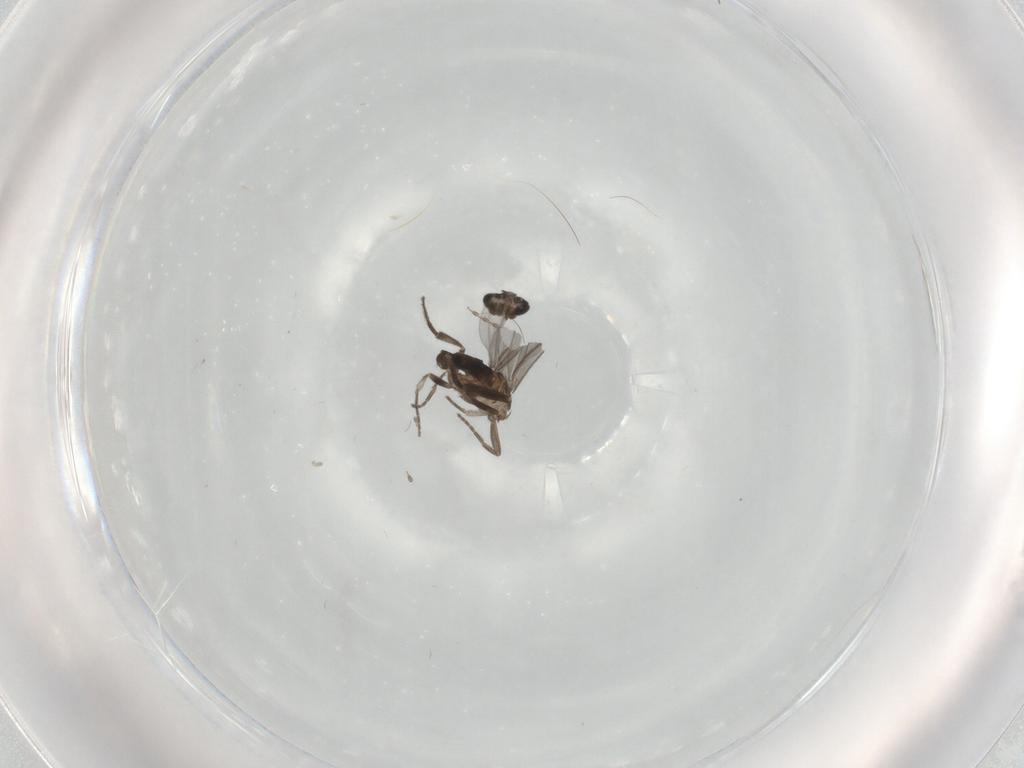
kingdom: Animalia
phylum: Arthropoda
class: Insecta
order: Diptera
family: Phoridae
